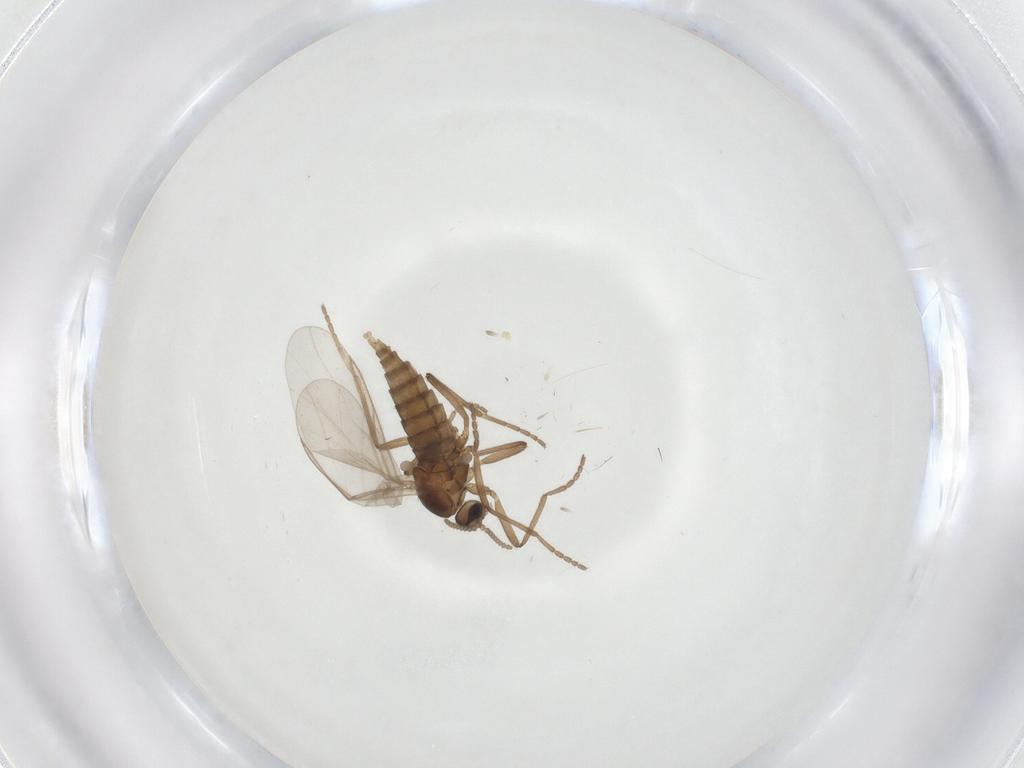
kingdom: Animalia
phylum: Arthropoda
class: Insecta
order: Diptera
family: Cecidomyiidae
